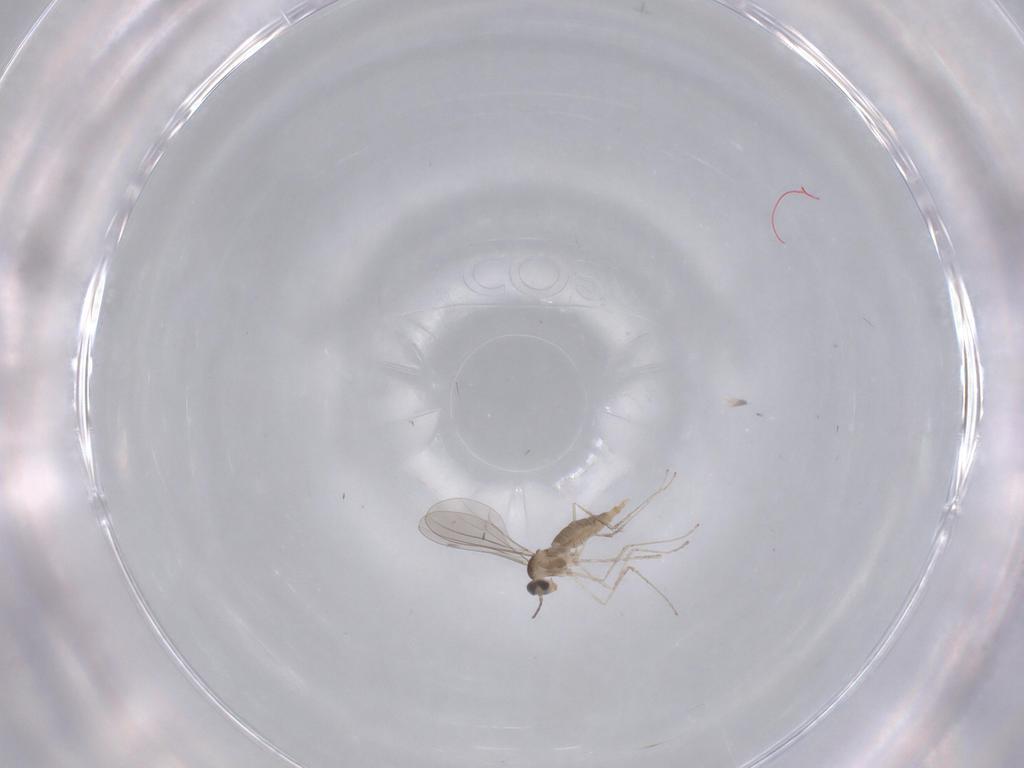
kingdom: Animalia
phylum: Arthropoda
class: Insecta
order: Diptera
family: Cecidomyiidae
